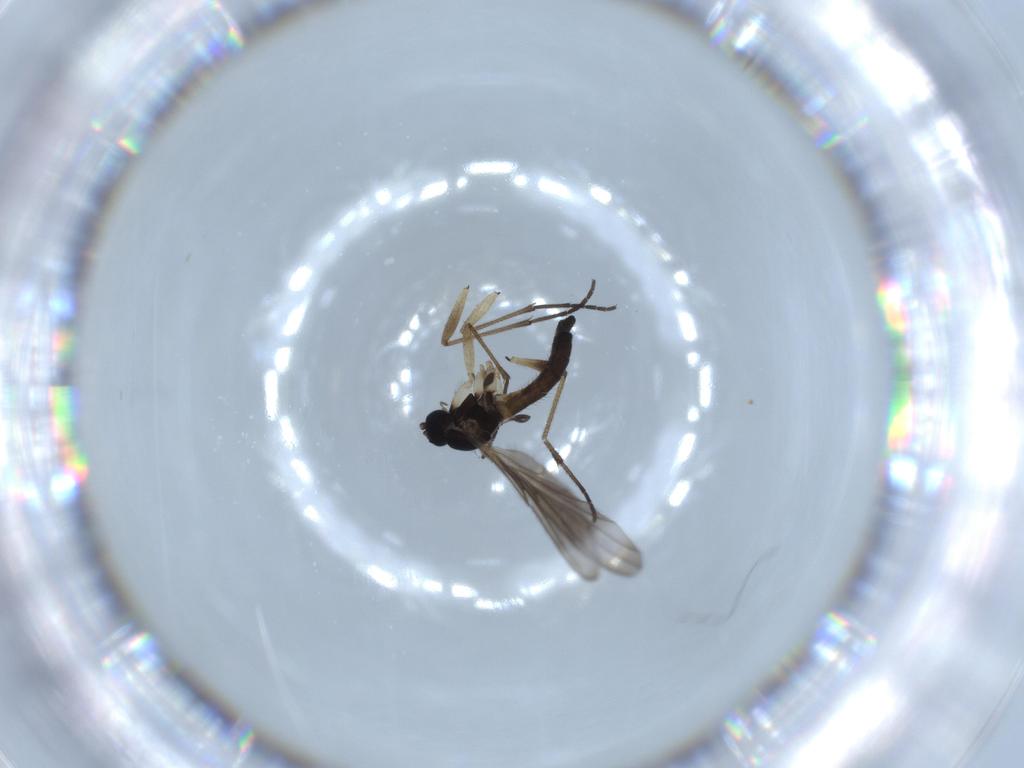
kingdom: Animalia
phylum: Arthropoda
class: Insecta
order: Diptera
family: Sciaridae
